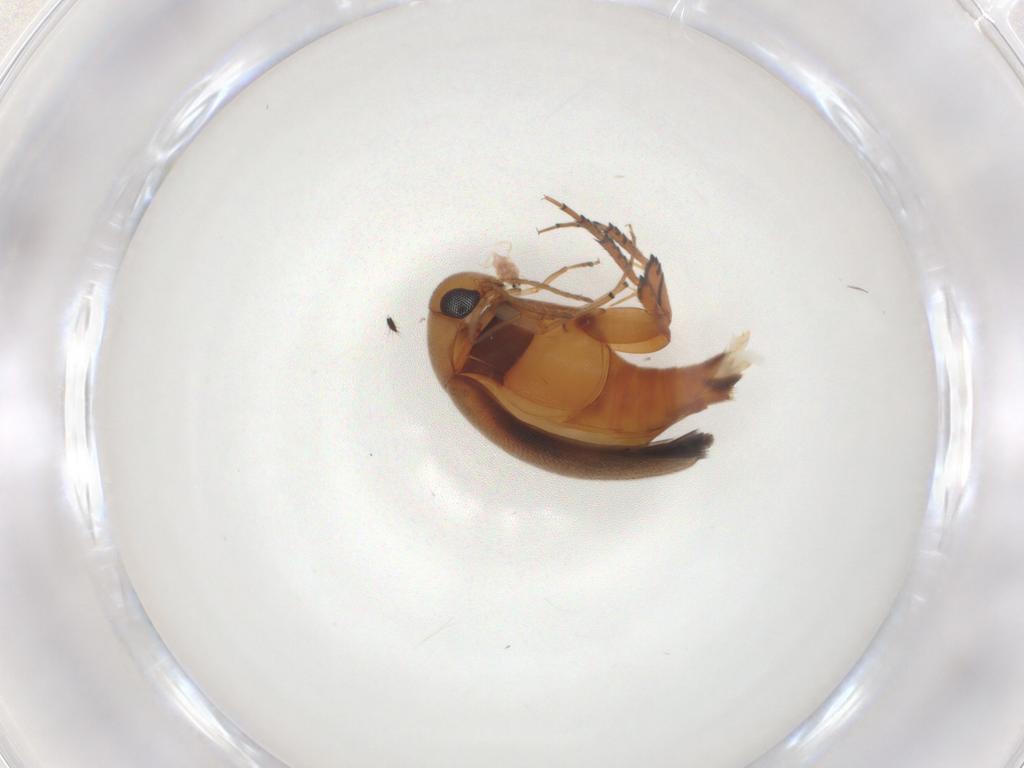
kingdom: Animalia
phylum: Arthropoda
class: Insecta
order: Coleoptera
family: Mordellidae
